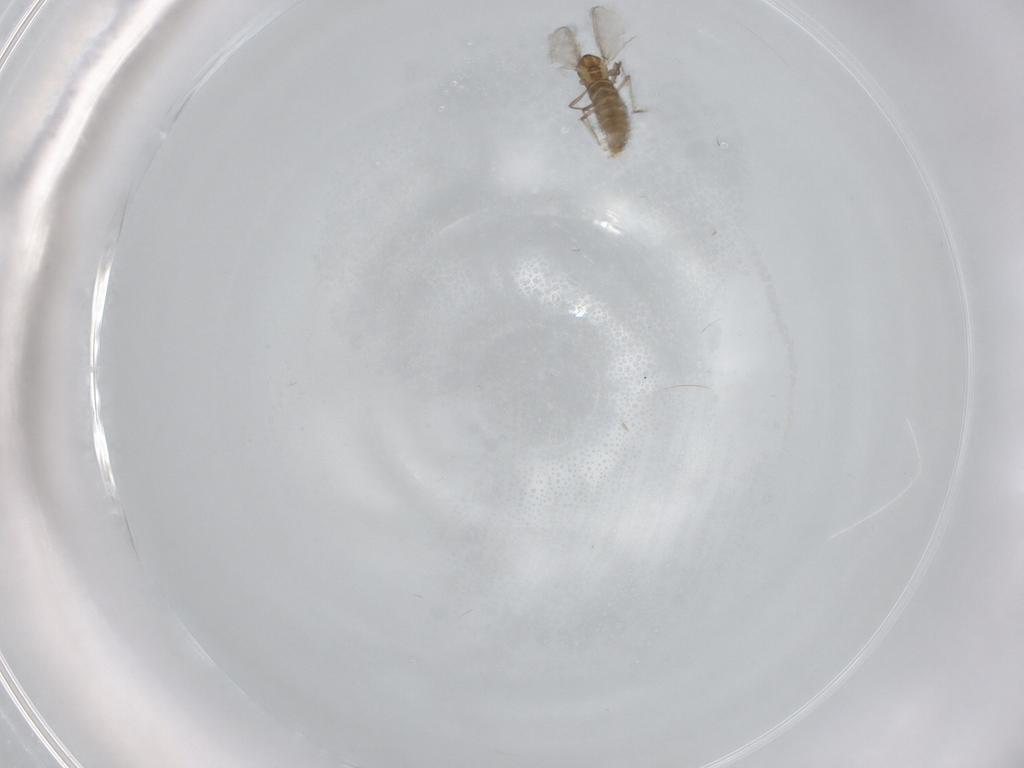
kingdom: Animalia
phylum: Arthropoda
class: Insecta
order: Diptera
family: Chironomidae
